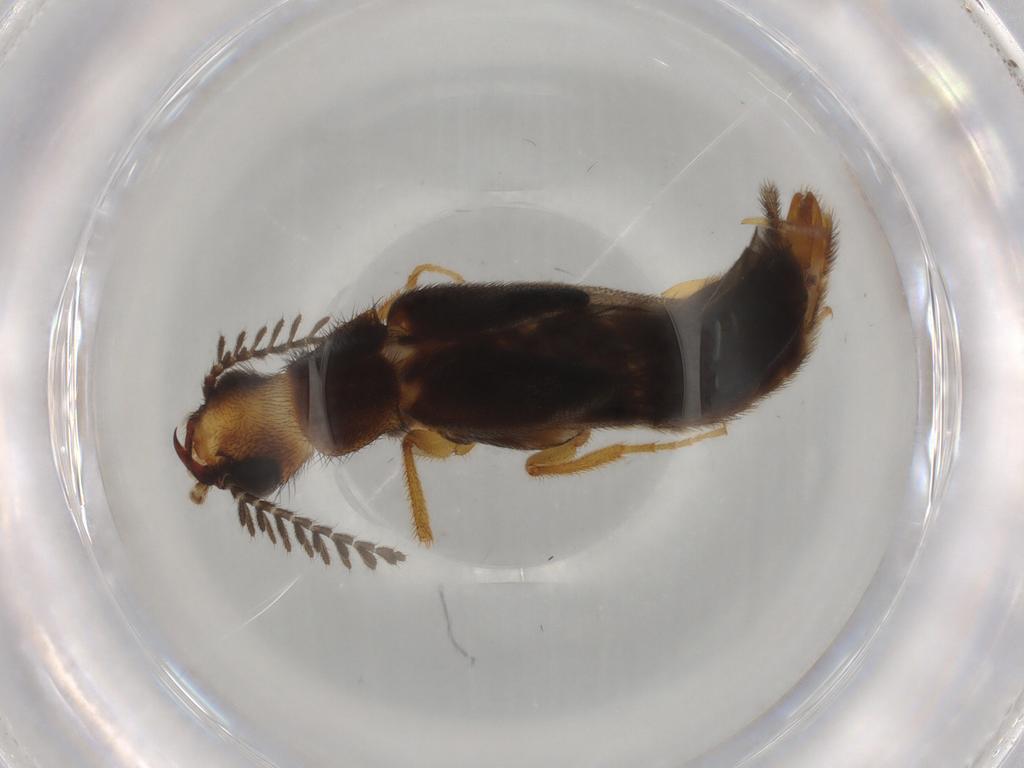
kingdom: Animalia
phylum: Arthropoda
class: Insecta
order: Coleoptera
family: Phengodidae
